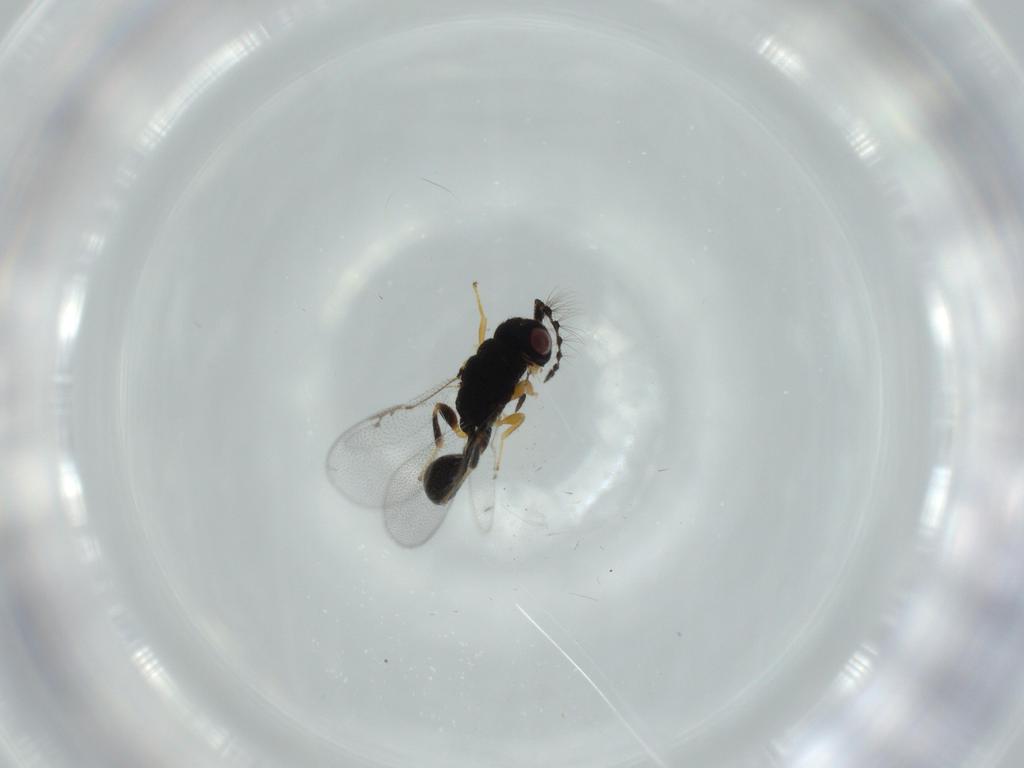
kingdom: Animalia
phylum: Arthropoda
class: Insecta
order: Hymenoptera
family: Eurytomidae
